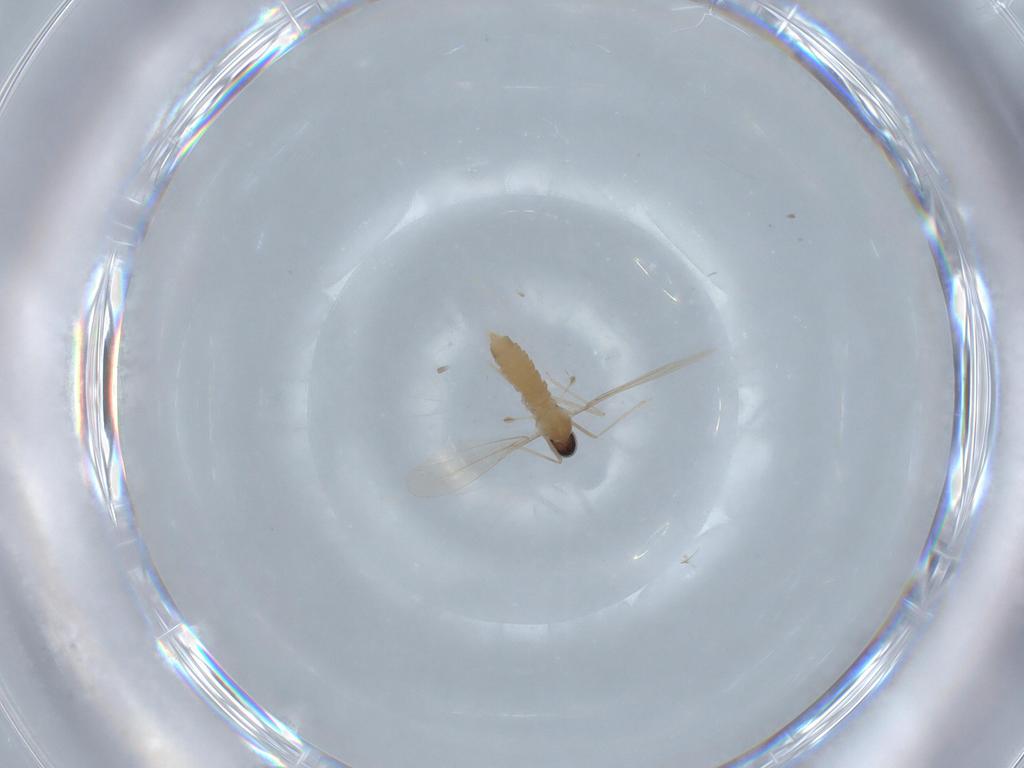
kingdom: Animalia
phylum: Arthropoda
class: Insecta
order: Diptera
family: Cecidomyiidae
